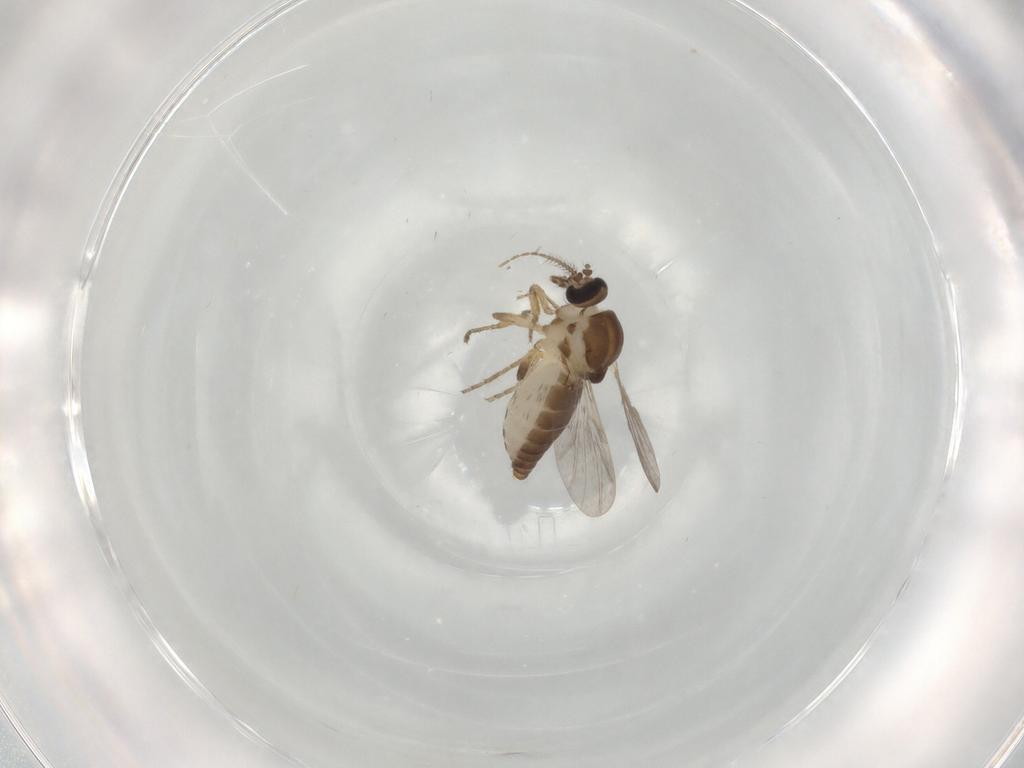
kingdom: Animalia
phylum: Arthropoda
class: Insecta
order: Diptera
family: Ceratopogonidae
